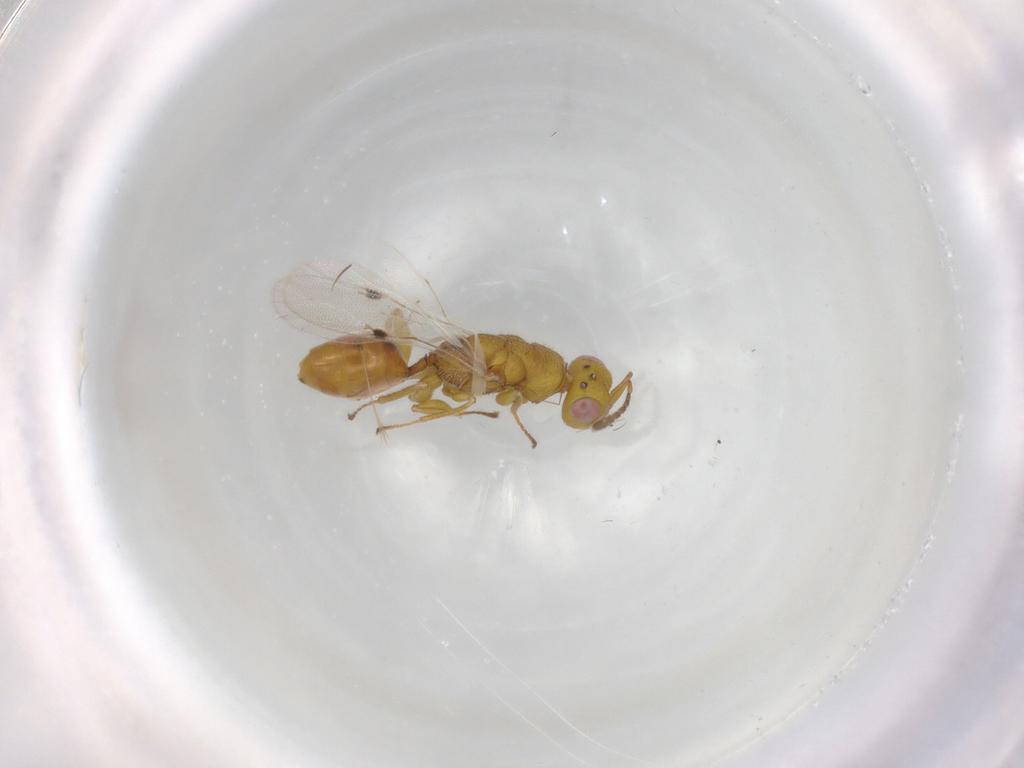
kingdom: Animalia
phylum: Arthropoda
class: Insecta
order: Hymenoptera
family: Eurytomidae
